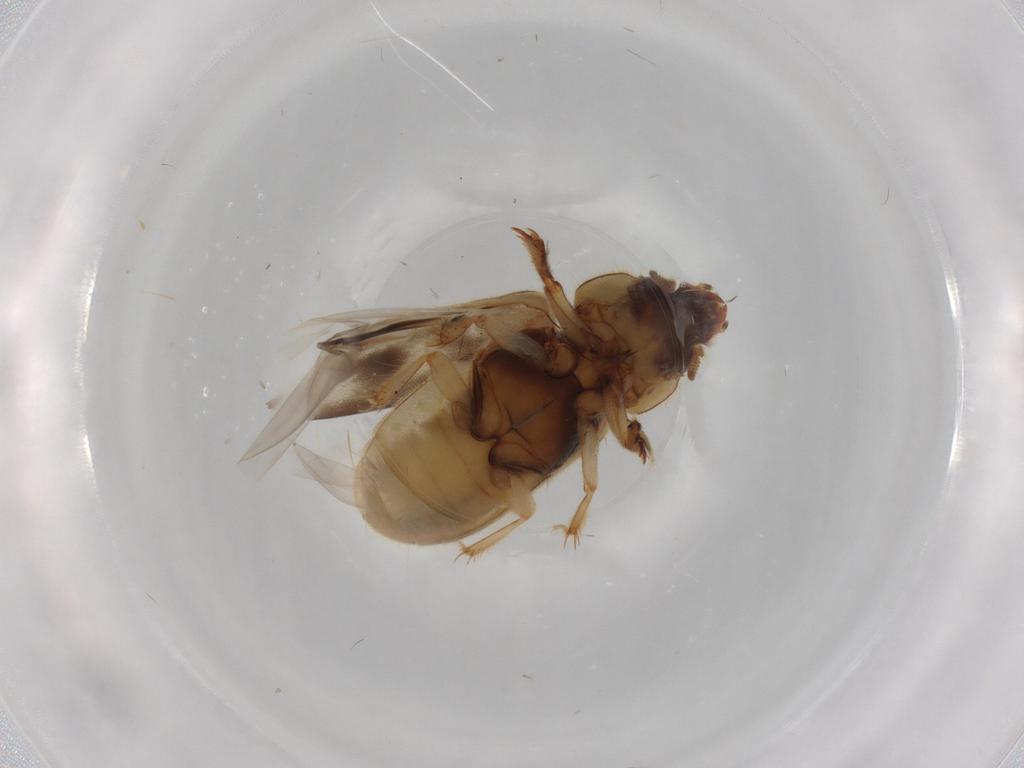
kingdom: Animalia
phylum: Arthropoda
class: Insecta
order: Coleoptera
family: Heteroceridae
